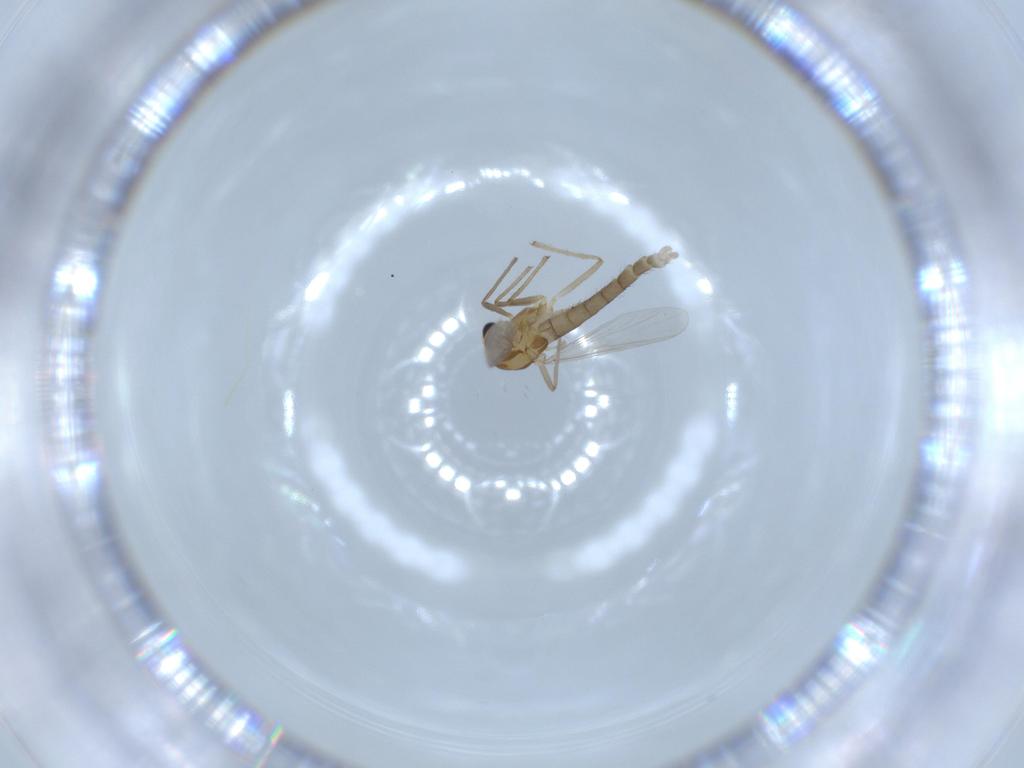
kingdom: Animalia
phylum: Arthropoda
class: Insecta
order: Diptera
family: Chironomidae
